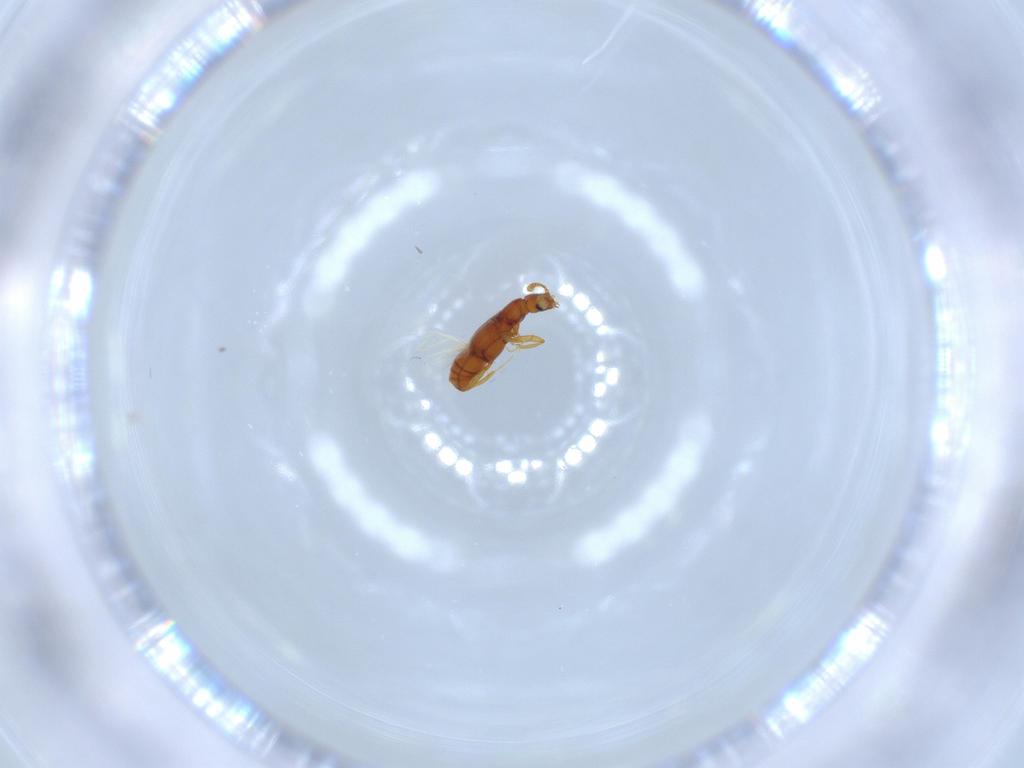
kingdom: Animalia
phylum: Arthropoda
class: Insecta
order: Coleoptera
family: Staphylinidae
